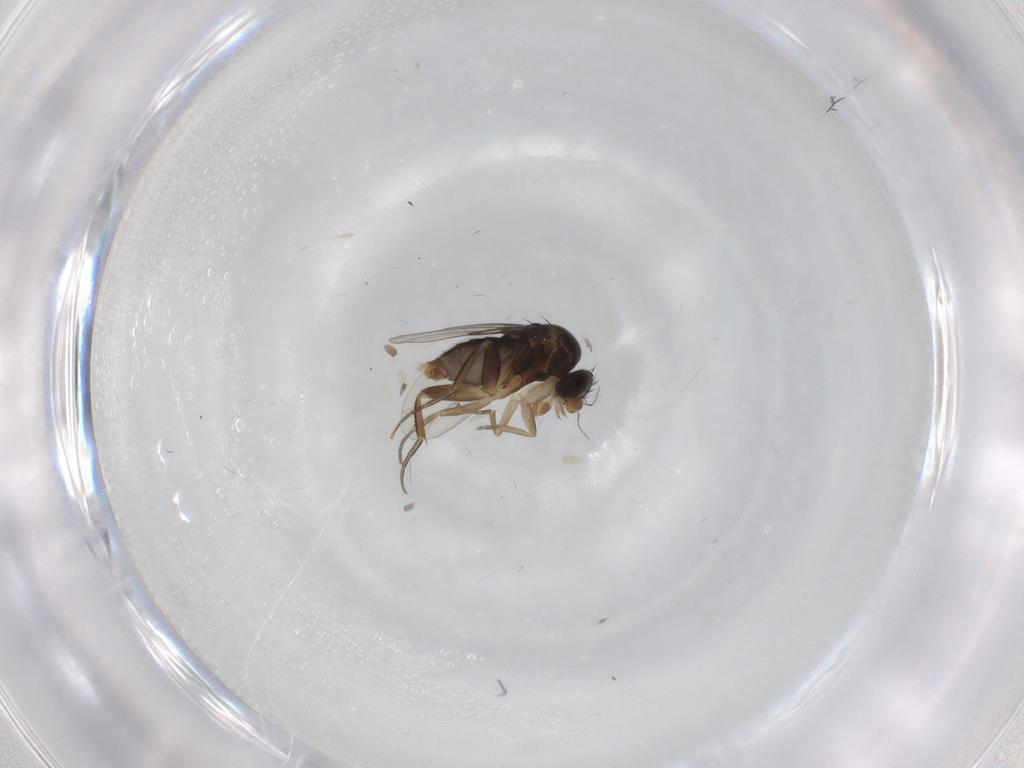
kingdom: Animalia
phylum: Arthropoda
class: Insecta
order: Diptera
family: Phoridae
